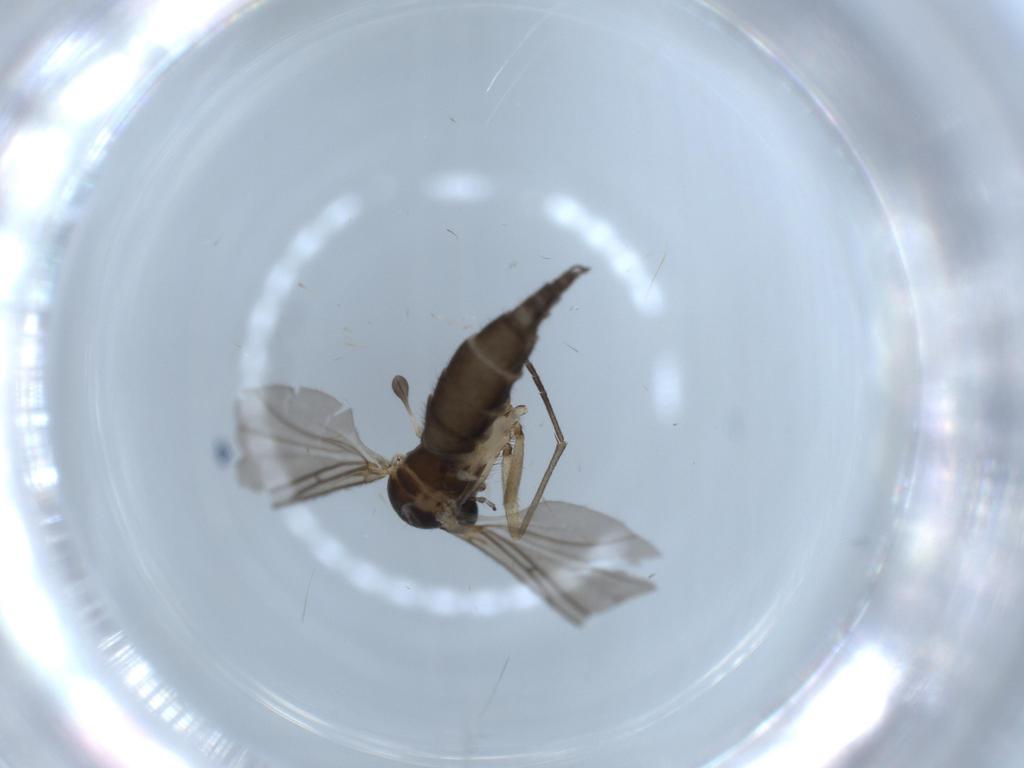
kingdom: Animalia
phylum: Arthropoda
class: Insecta
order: Diptera
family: Sciaridae
